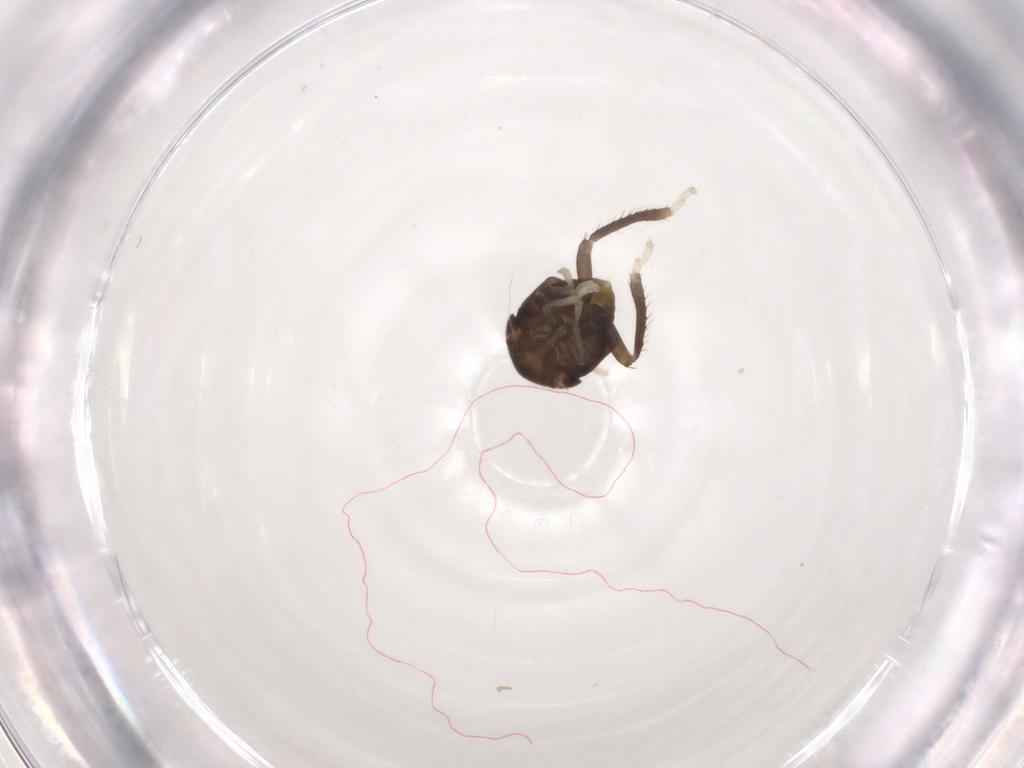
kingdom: Animalia
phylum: Arthropoda
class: Insecta
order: Hemiptera
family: Cicadellidae
